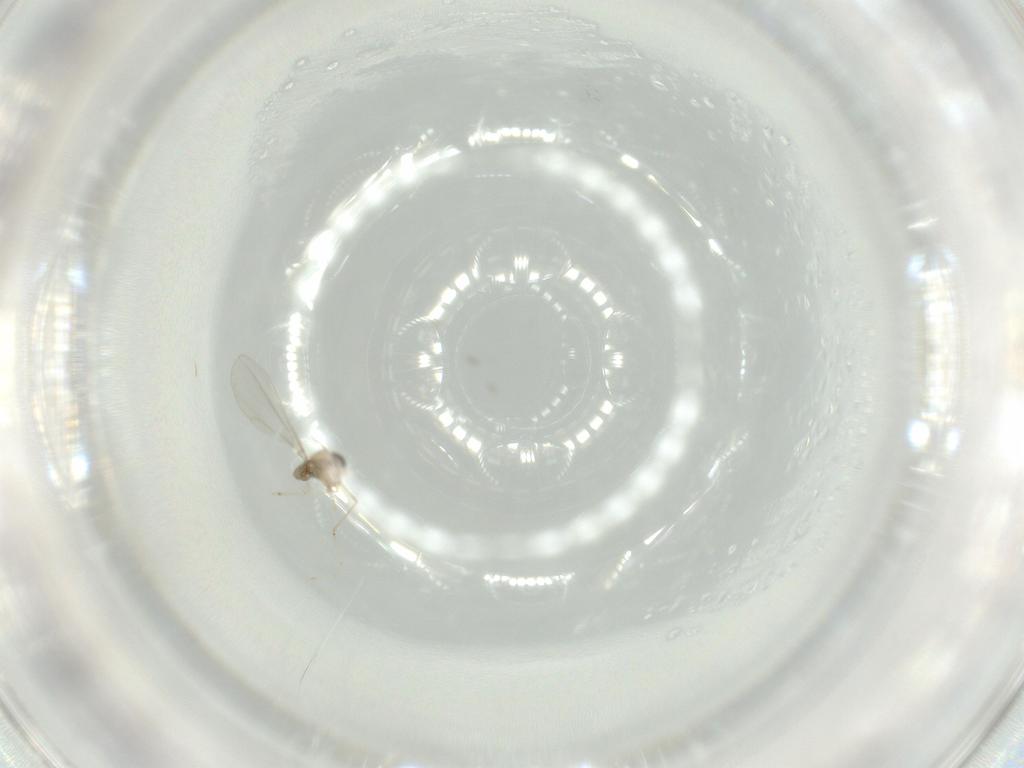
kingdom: Animalia
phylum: Arthropoda
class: Insecta
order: Diptera
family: Cecidomyiidae
